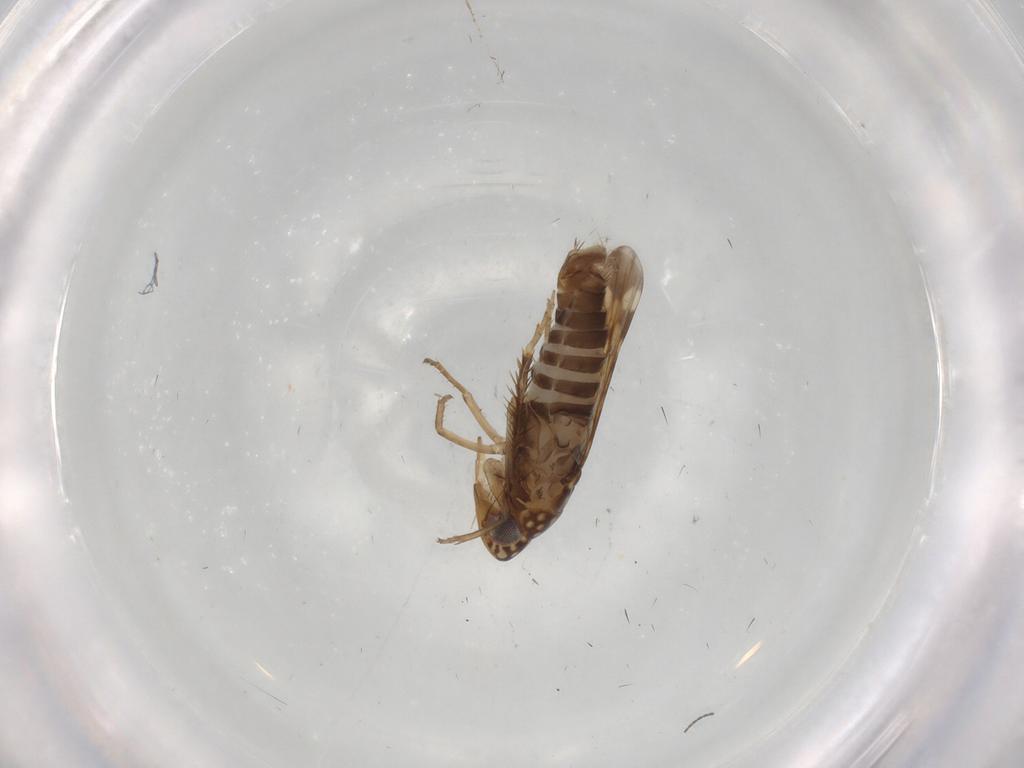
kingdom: Animalia
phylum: Arthropoda
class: Insecta
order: Hemiptera
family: Cicadellidae
